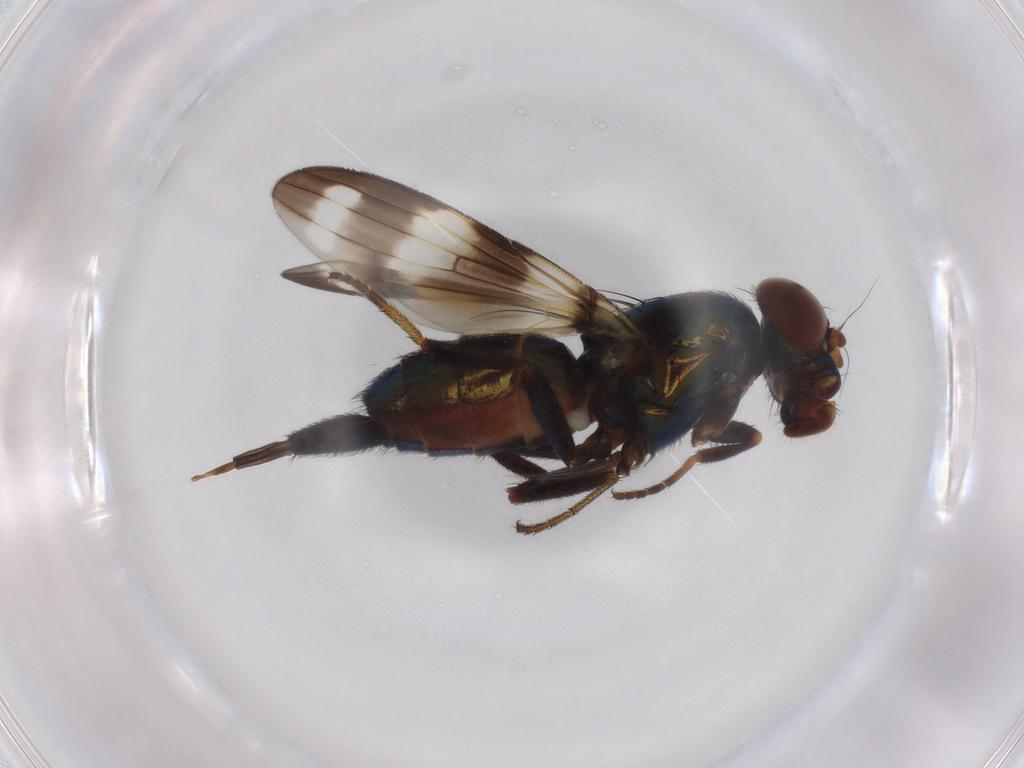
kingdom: Animalia
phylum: Arthropoda
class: Insecta
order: Diptera
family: Ulidiidae
